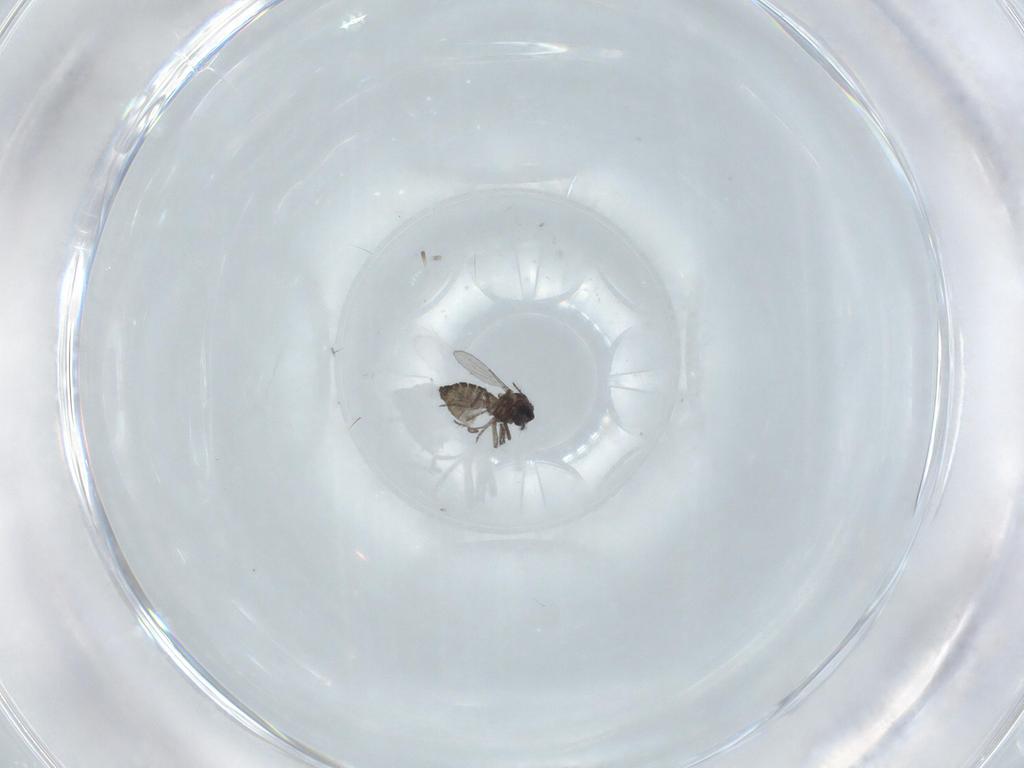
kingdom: Animalia
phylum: Arthropoda
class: Insecta
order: Diptera
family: Ceratopogonidae
